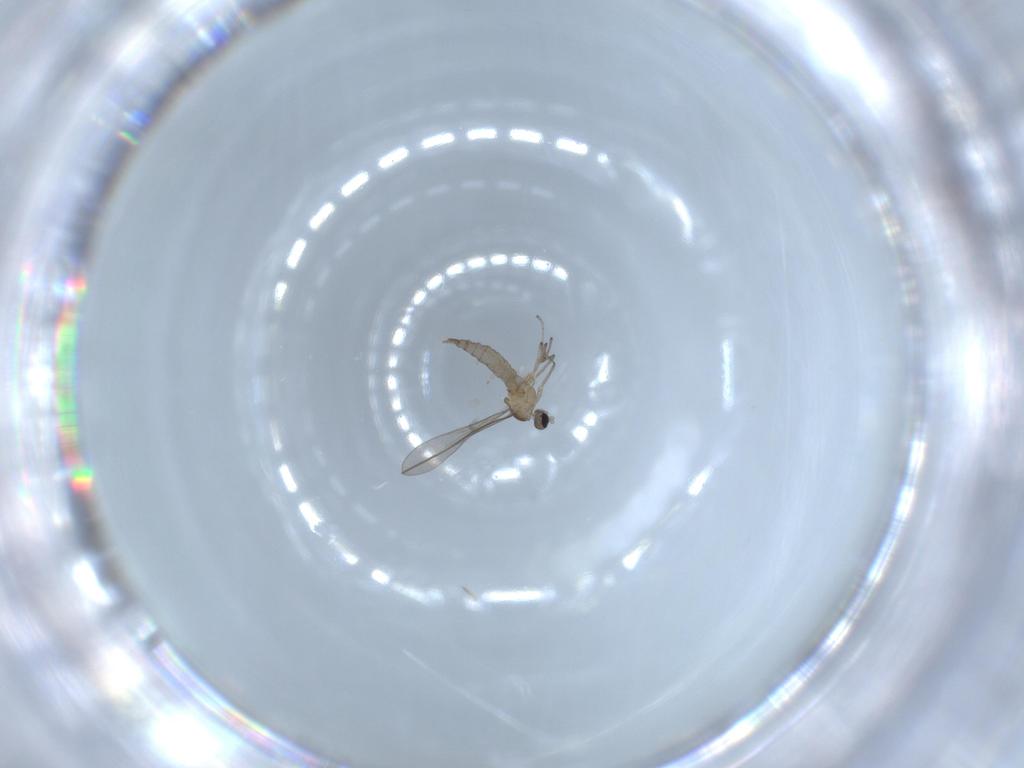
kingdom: Animalia
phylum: Arthropoda
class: Insecta
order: Diptera
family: Cecidomyiidae
